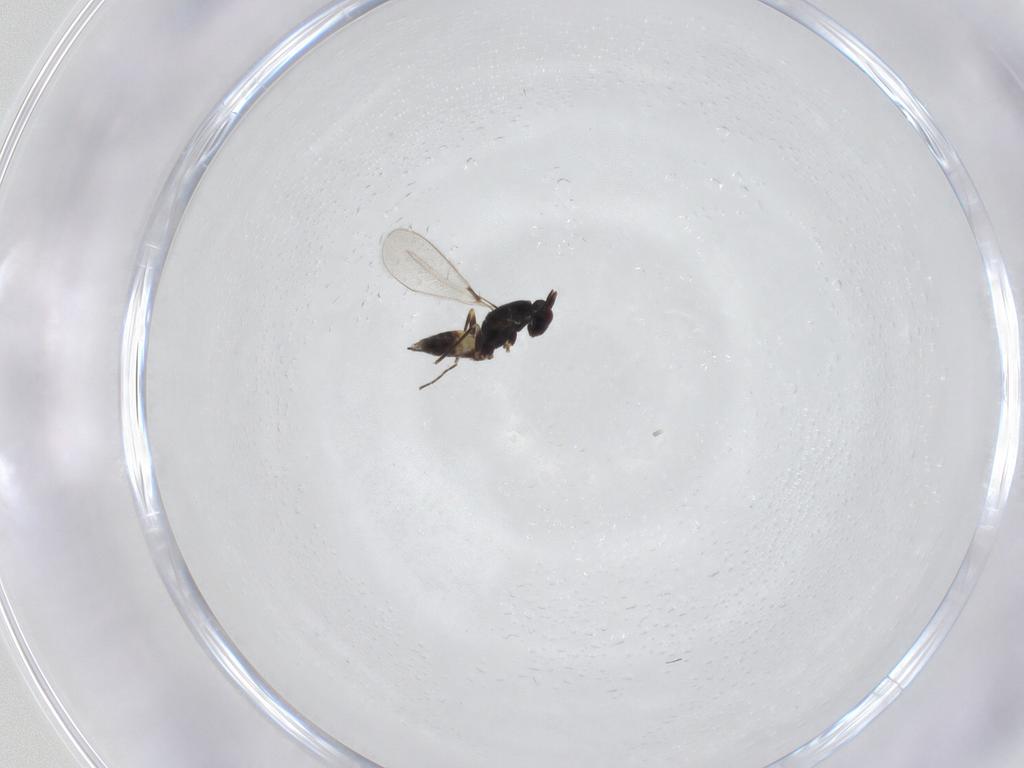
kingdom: Animalia
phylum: Arthropoda
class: Insecta
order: Hymenoptera
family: Mymaridae
